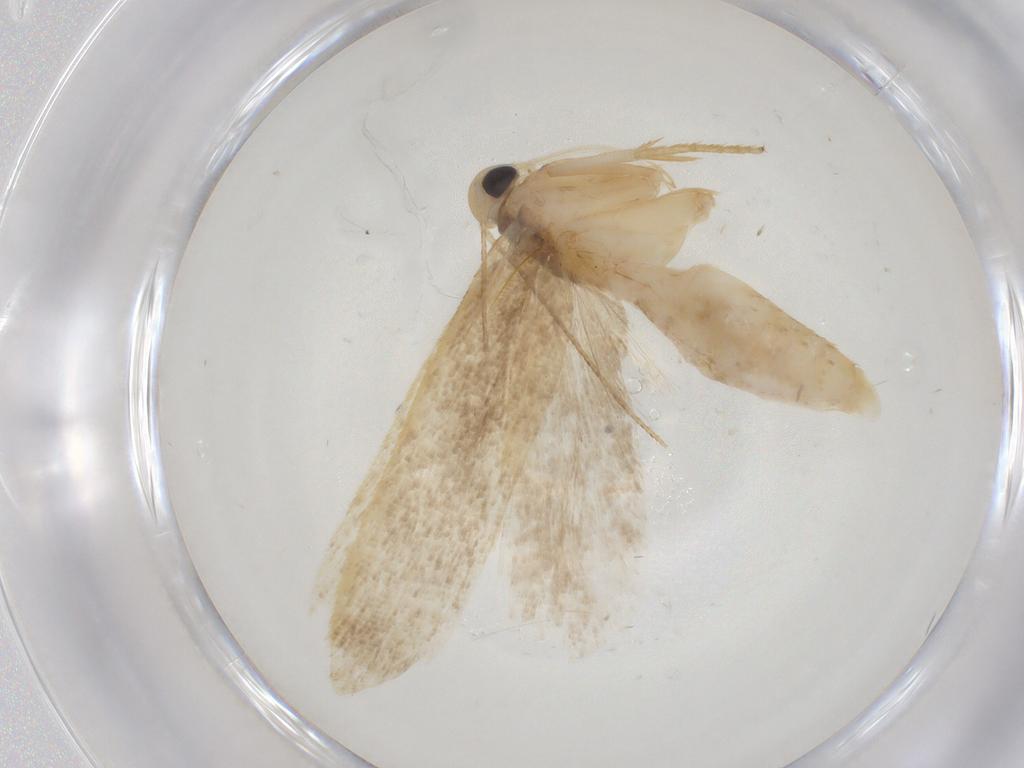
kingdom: Animalia
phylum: Arthropoda
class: Insecta
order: Lepidoptera
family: Gelechiidae
